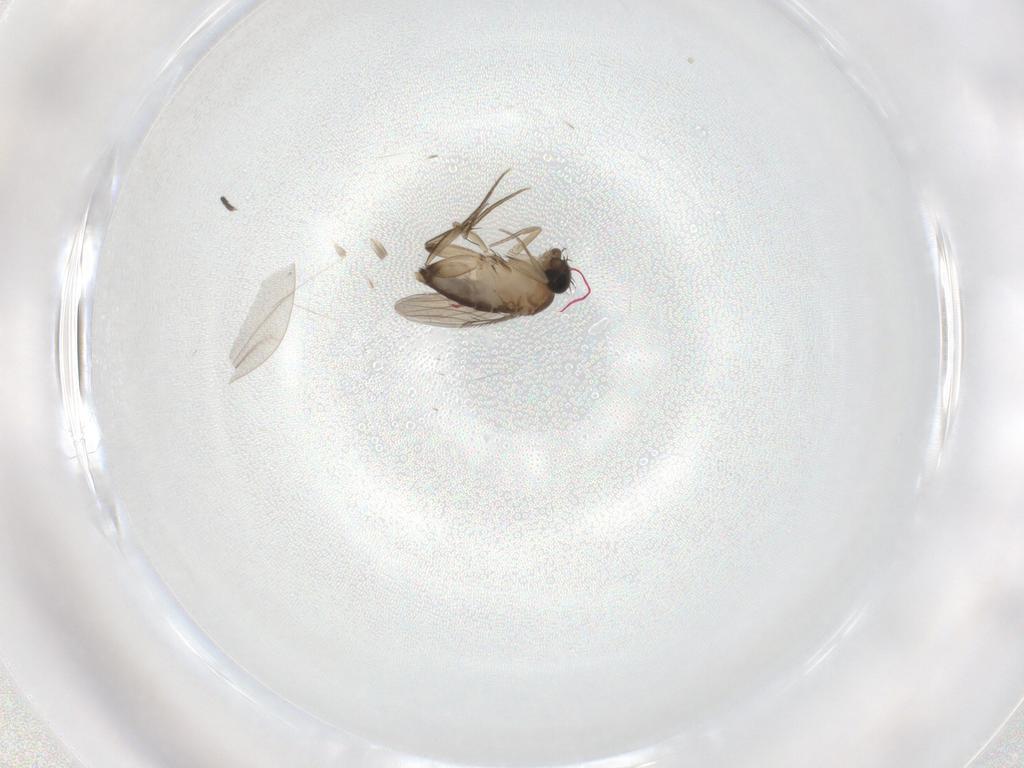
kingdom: Animalia
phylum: Arthropoda
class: Insecta
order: Diptera
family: Phoridae
